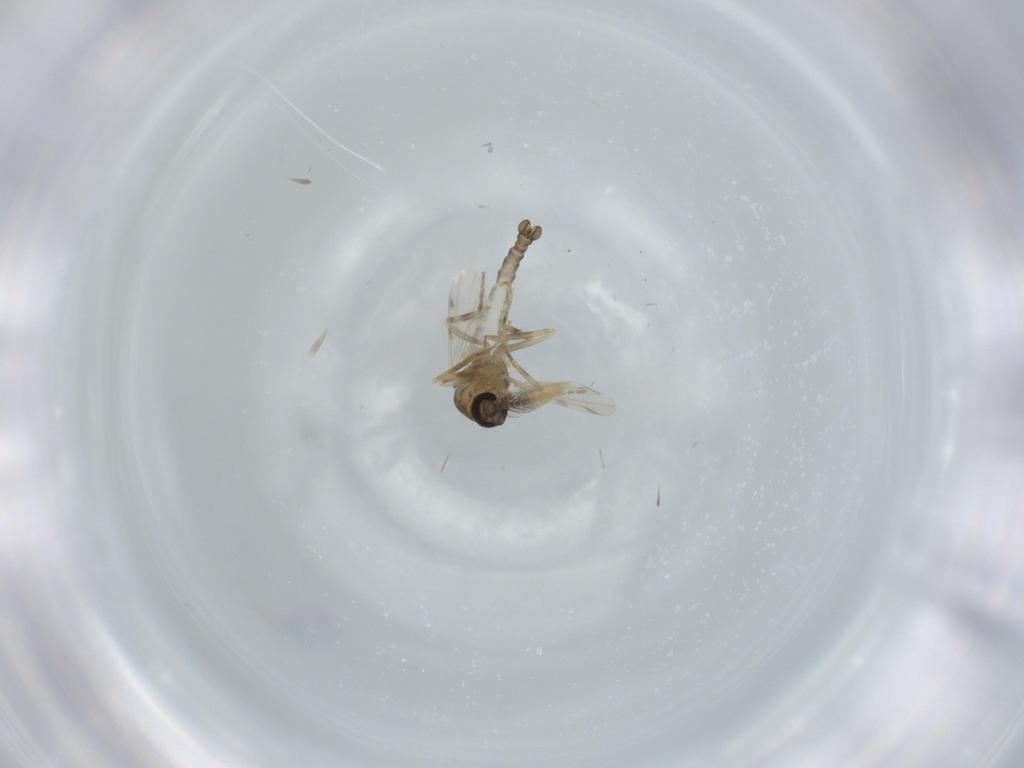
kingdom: Animalia
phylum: Arthropoda
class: Insecta
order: Diptera
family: Ceratopogonidae
